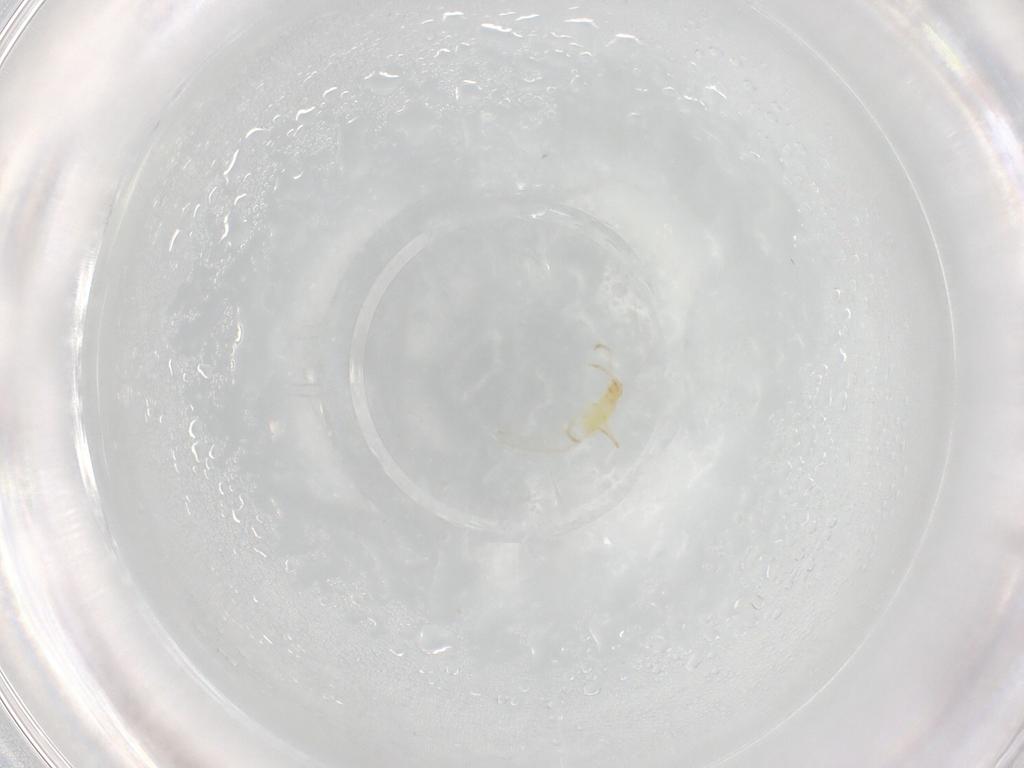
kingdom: Animalia
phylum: Arthropoda
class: Arachnida
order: Trombidiformes
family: Erythraeidae
